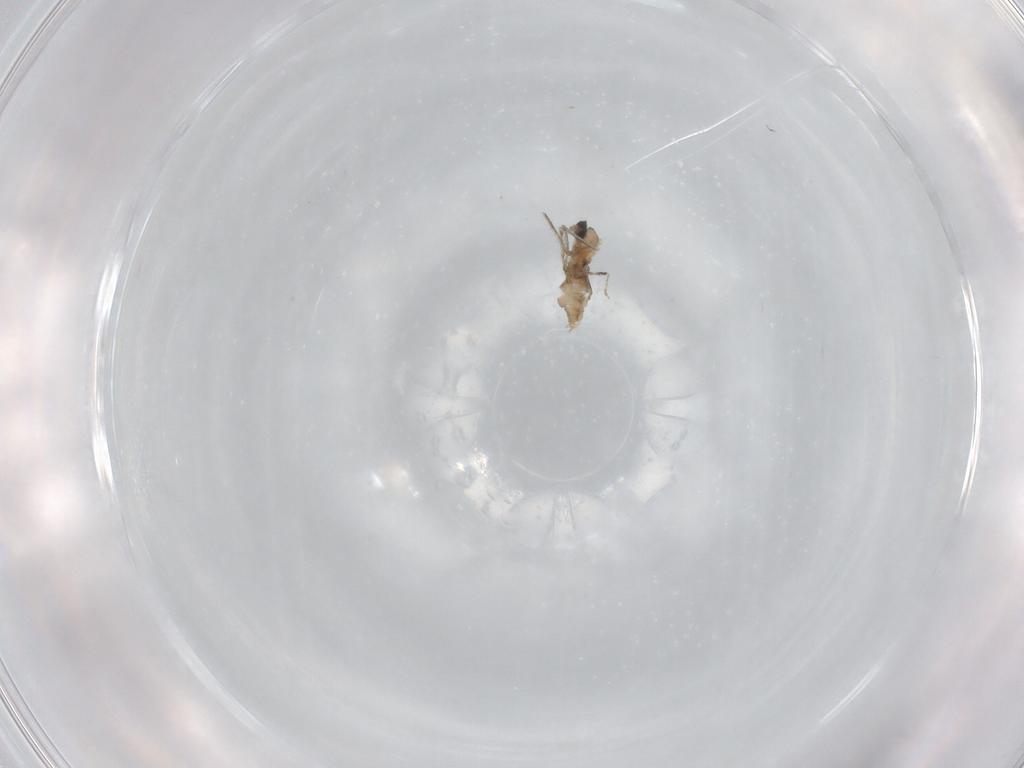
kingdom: Animalia
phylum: Arthropoda
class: Insecta
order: Diptera
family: Cecidomyiidae
